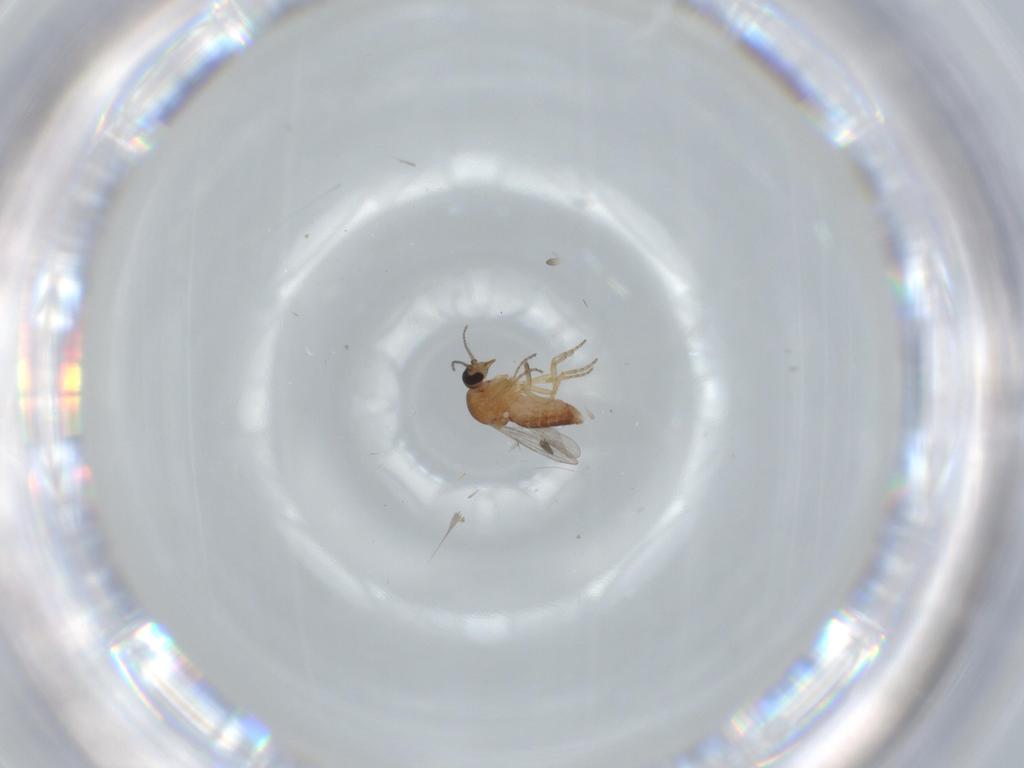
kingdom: Animalia
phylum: Arthropoda
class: Insecta
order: Diptera
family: Ceratopogonidae
